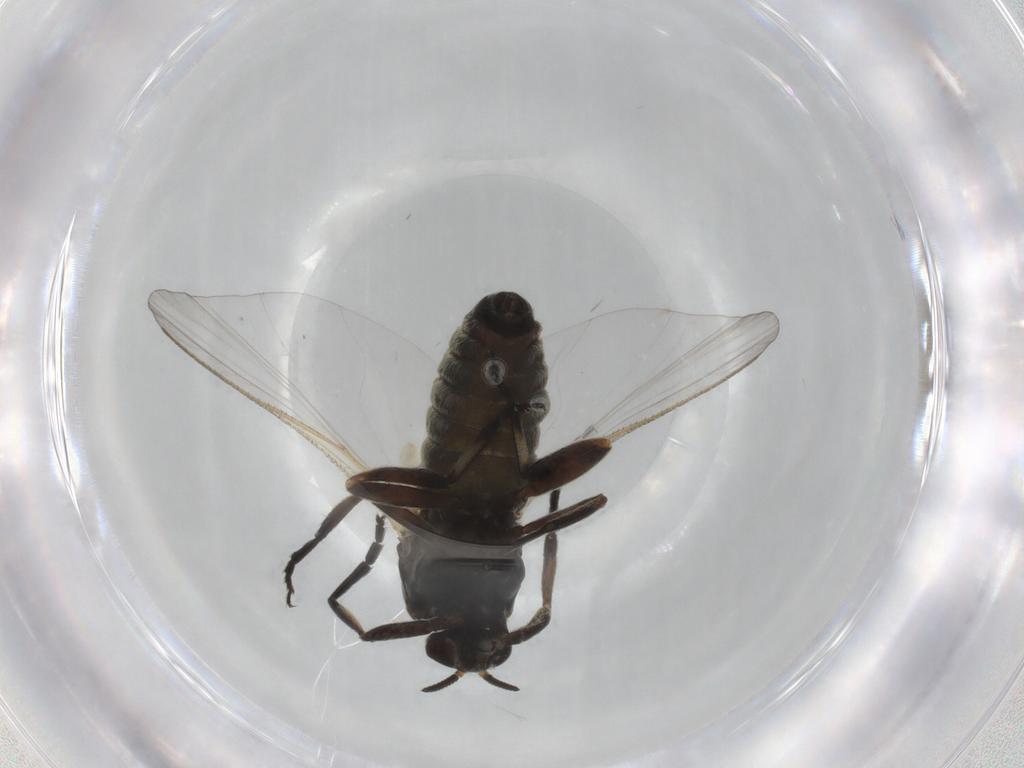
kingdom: Animalia
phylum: Arthropoda
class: Insecta
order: Diptera
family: Simuliidae
